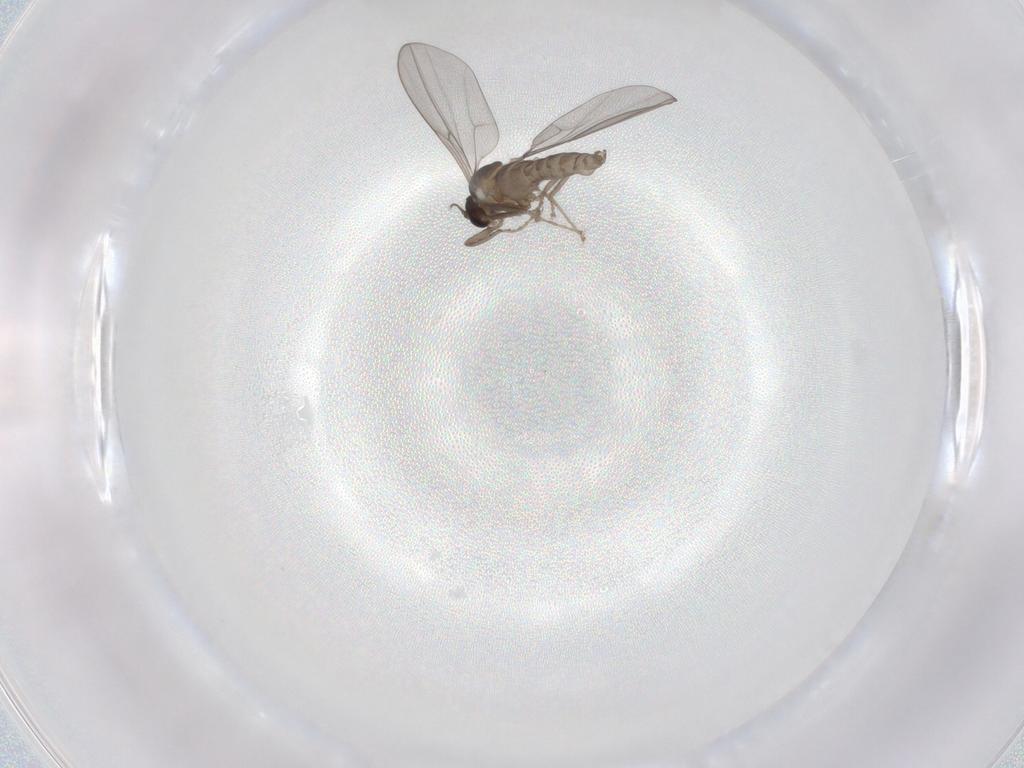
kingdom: Animalia
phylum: Arthropoda
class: Insecta
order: Diptera
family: Cecidomyiidae
